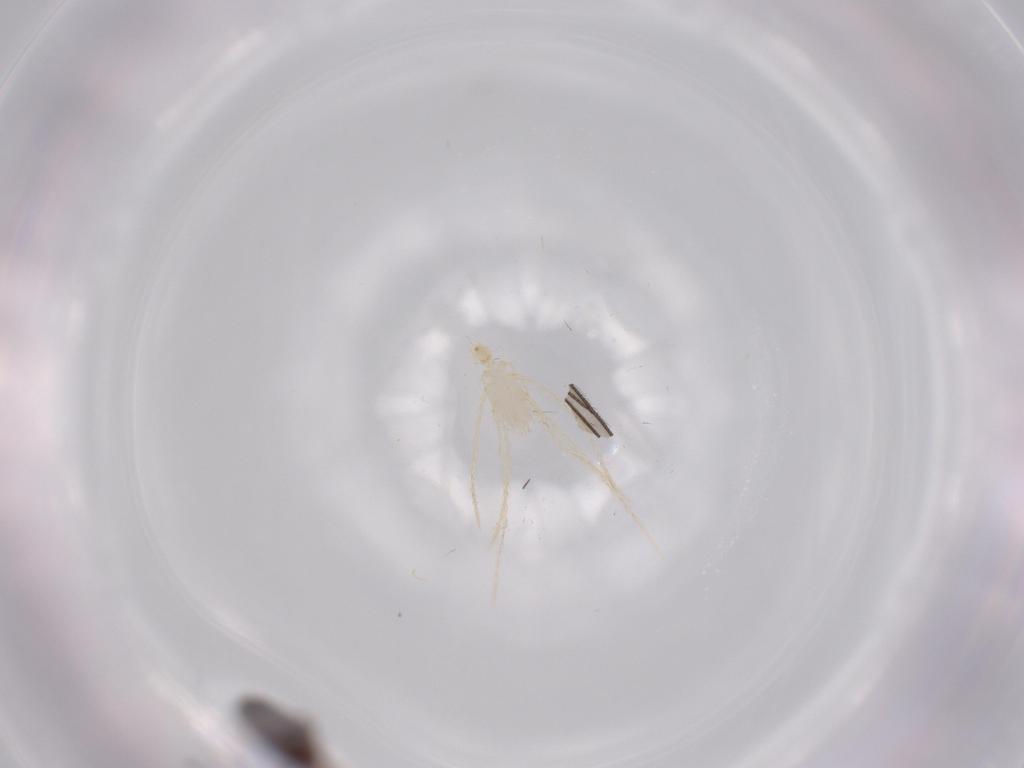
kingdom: Animalia
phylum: Arthropoda
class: Insecta
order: Coleoptera
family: Staphylinidae
